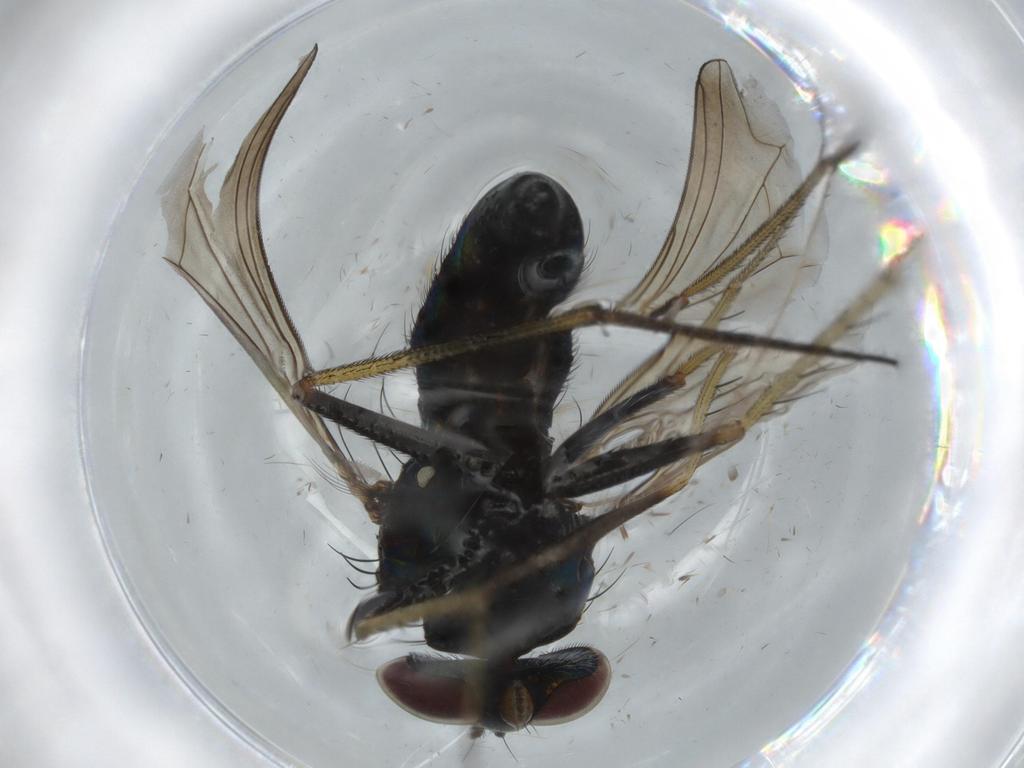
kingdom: Animalia
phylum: Arthropoda
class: Insecta
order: Diptera
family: Dolichopodidae
